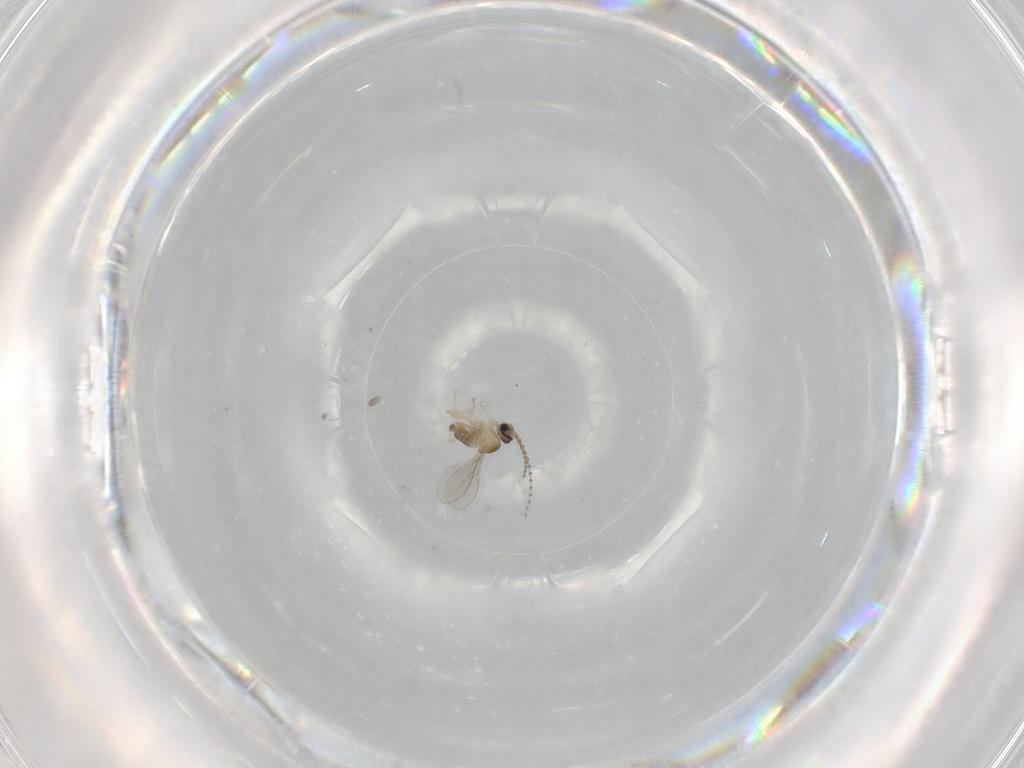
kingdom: Animalia
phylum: Arthropoda
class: Insecta
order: Diptera
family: Cecidomyiidae
